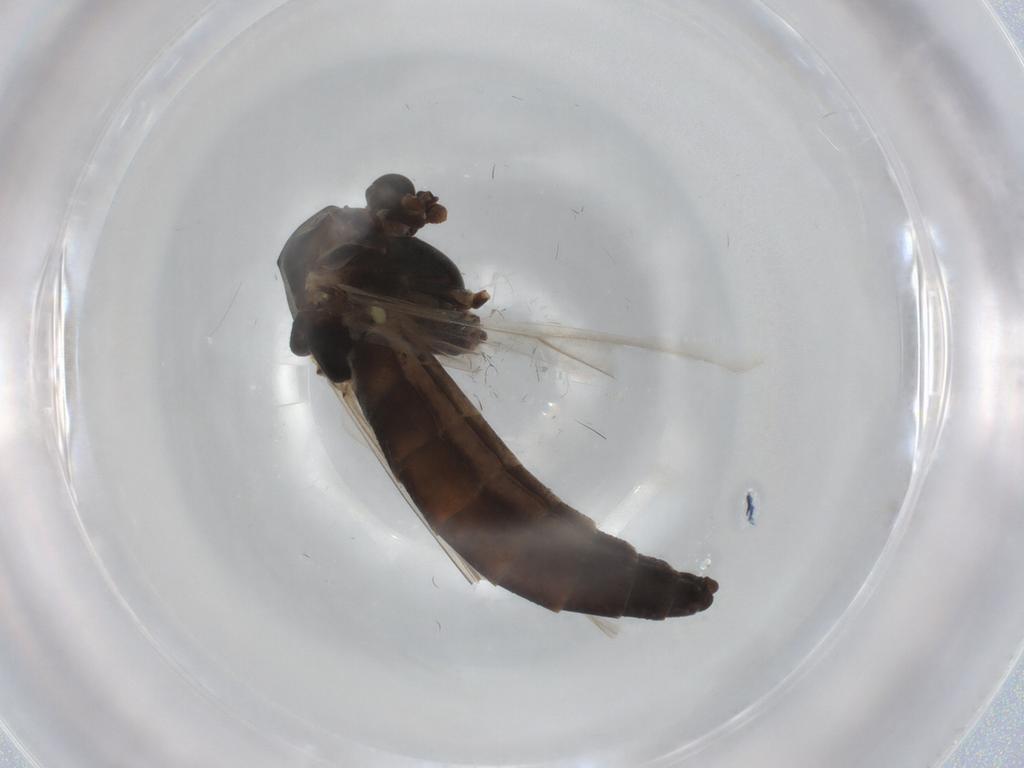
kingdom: Animalia
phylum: Arthropoda
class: Insecta
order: Diptera
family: Chironomidae
